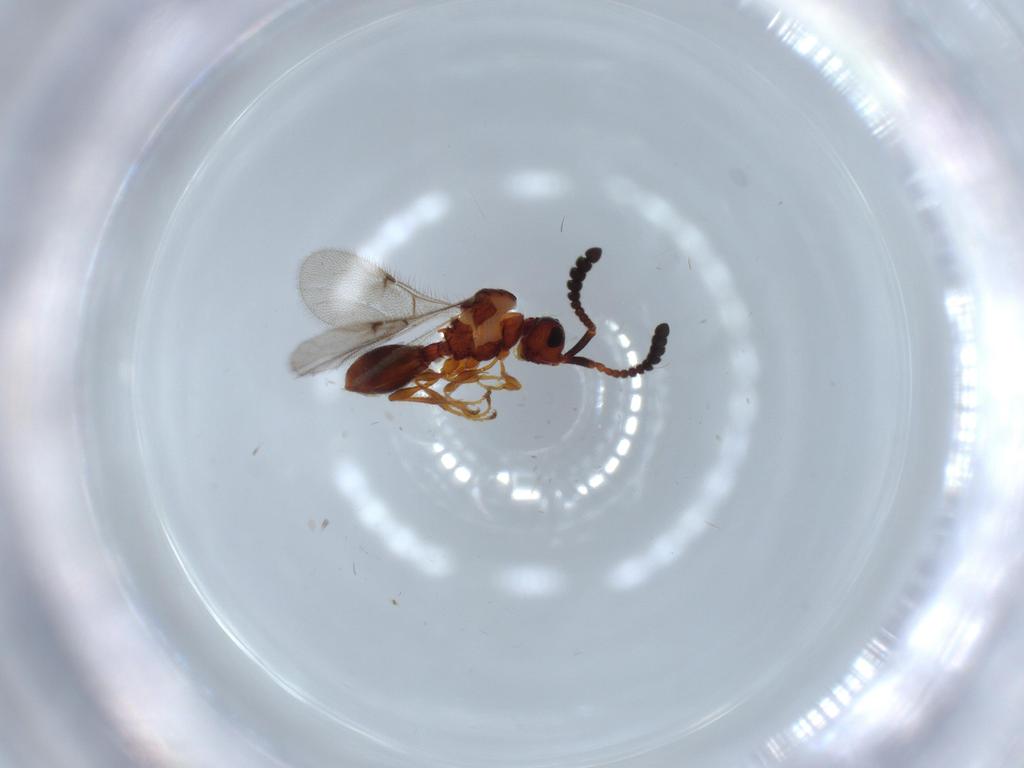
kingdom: Animalia
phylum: Arthropoda
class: Insecta
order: Hymenoptera
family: Diapriidae
